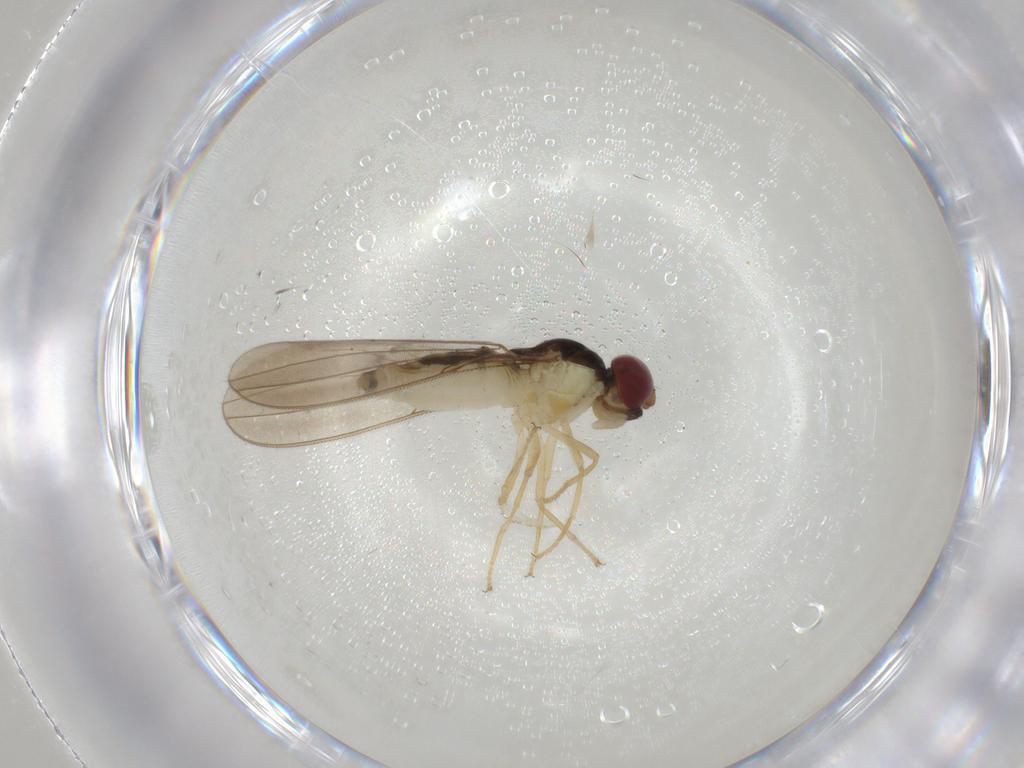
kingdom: Animalia
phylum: Arthropoda
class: Insecta
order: Diptera
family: Asteiidae
